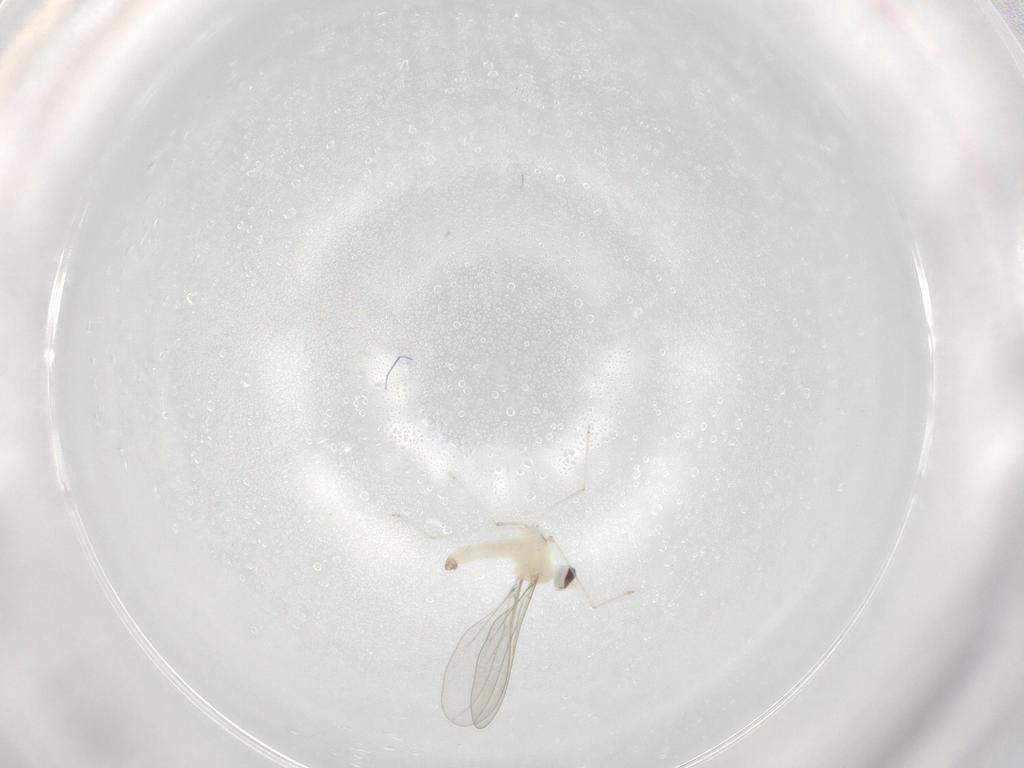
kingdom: Animalia
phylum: Arthropoda
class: Insecta
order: Diptera
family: Cecidomyiidae
